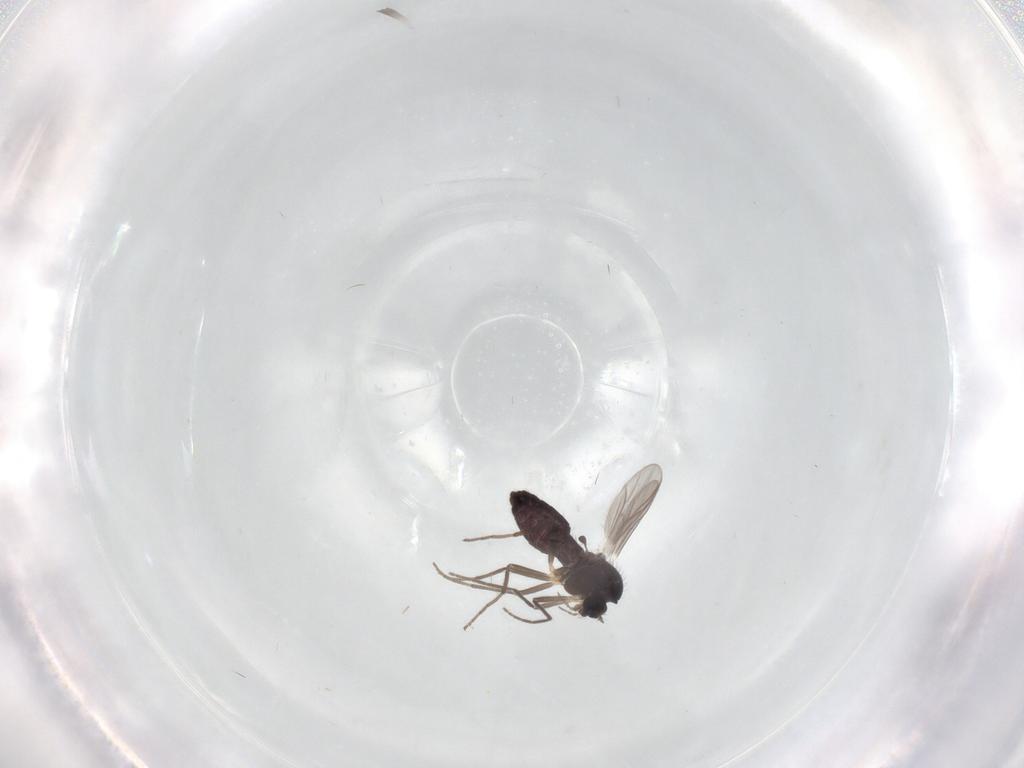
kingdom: Animalia
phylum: Arthropoda
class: Insecta
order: Diptera
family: Chironomidae
